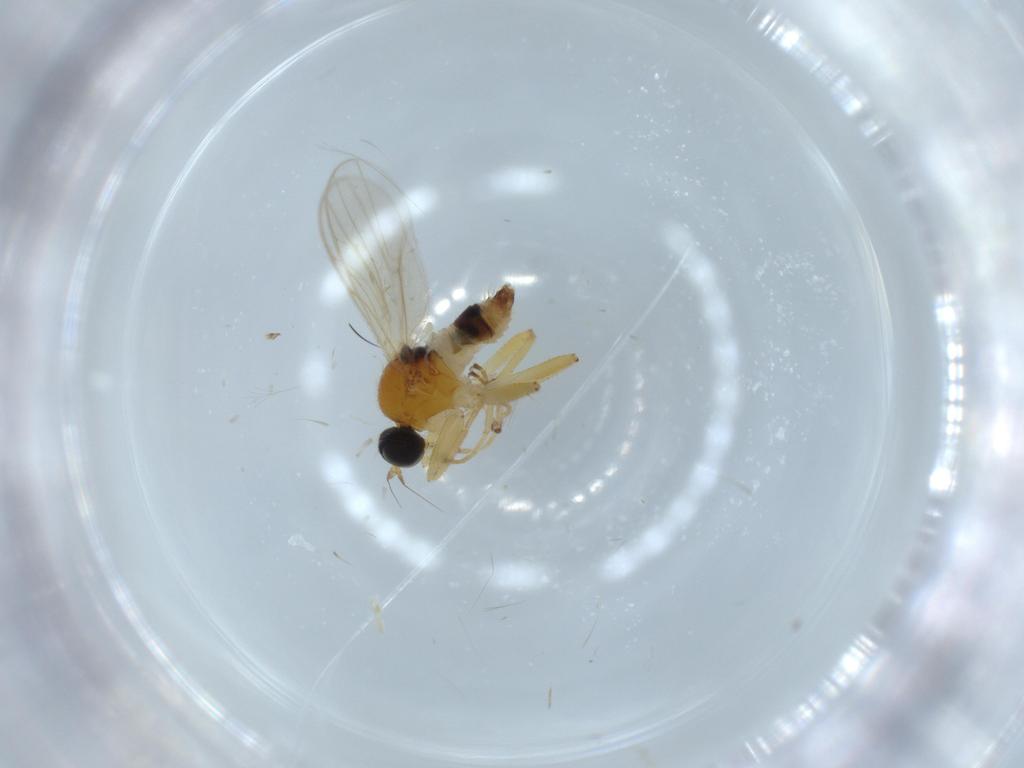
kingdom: Animalia
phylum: Arthropoda
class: Insecta
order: Diptera
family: Hybotidae
